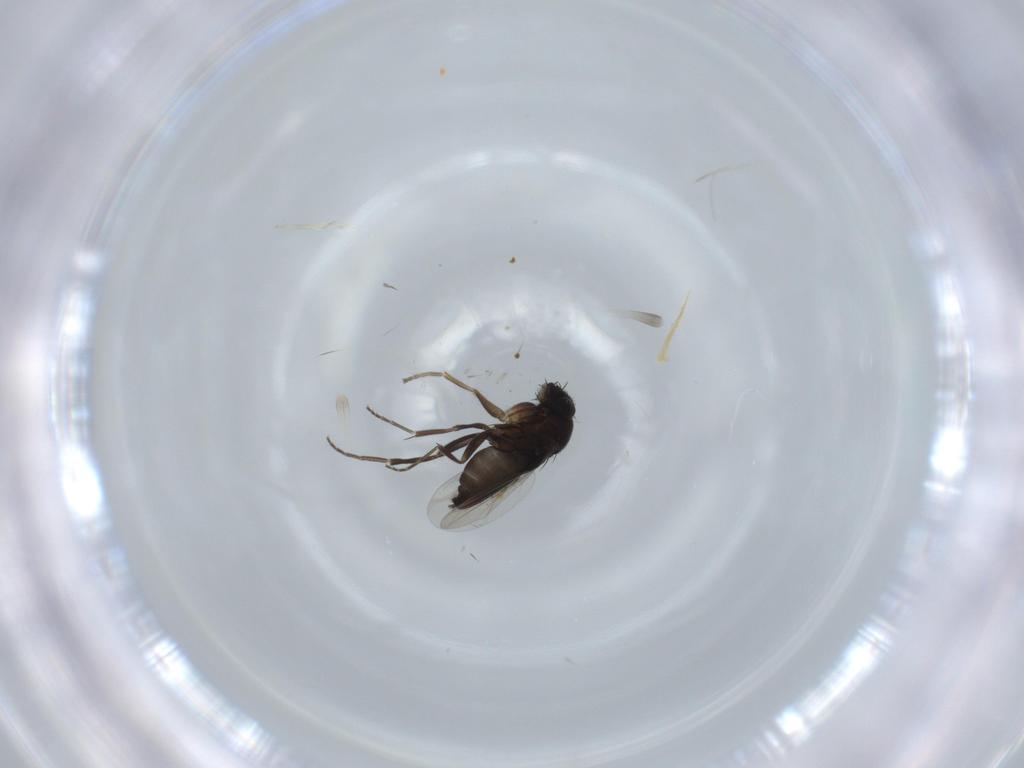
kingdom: Animalia
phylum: Arthropoda
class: Insecta
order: Diptera
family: Phoridae
